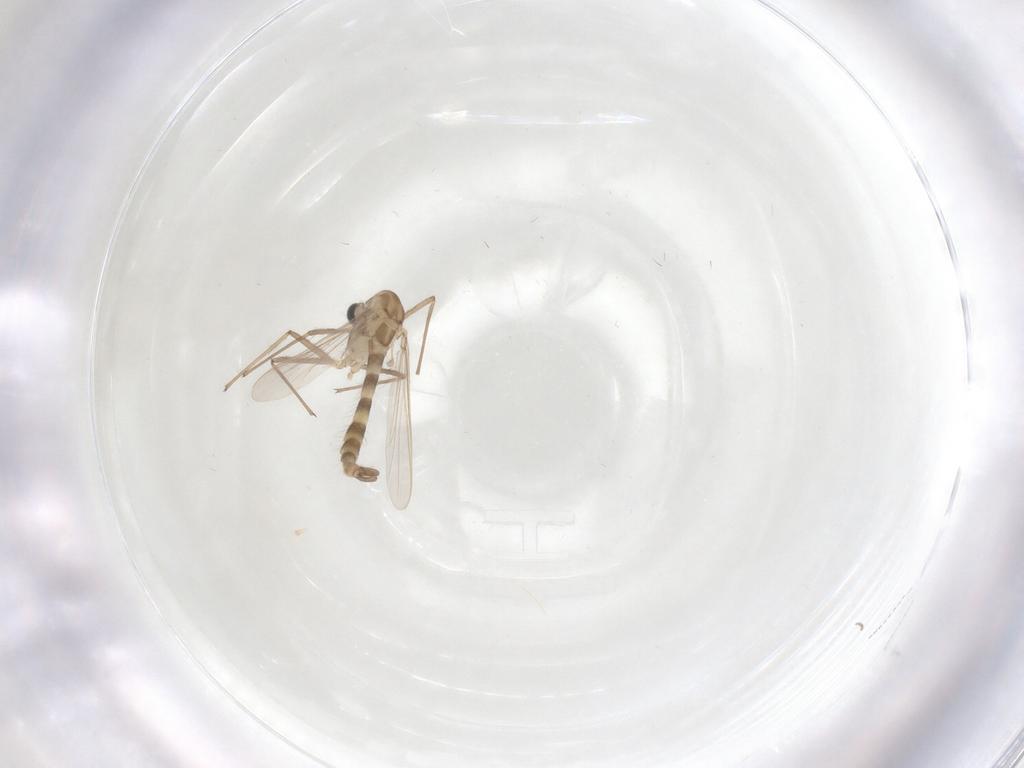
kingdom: Animalia
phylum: Arthropoda
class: Insecta
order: Diptera
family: Chironomidae
